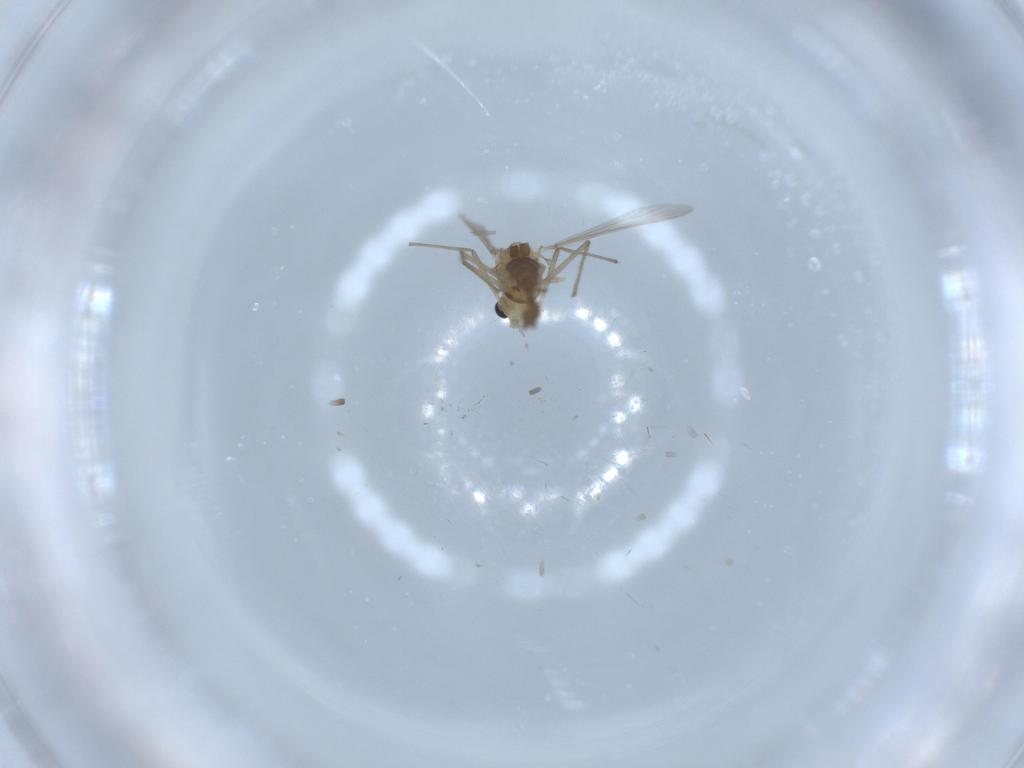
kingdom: Animalia
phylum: Arthropoda
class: Insecta
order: Diptera
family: Chironomidae
